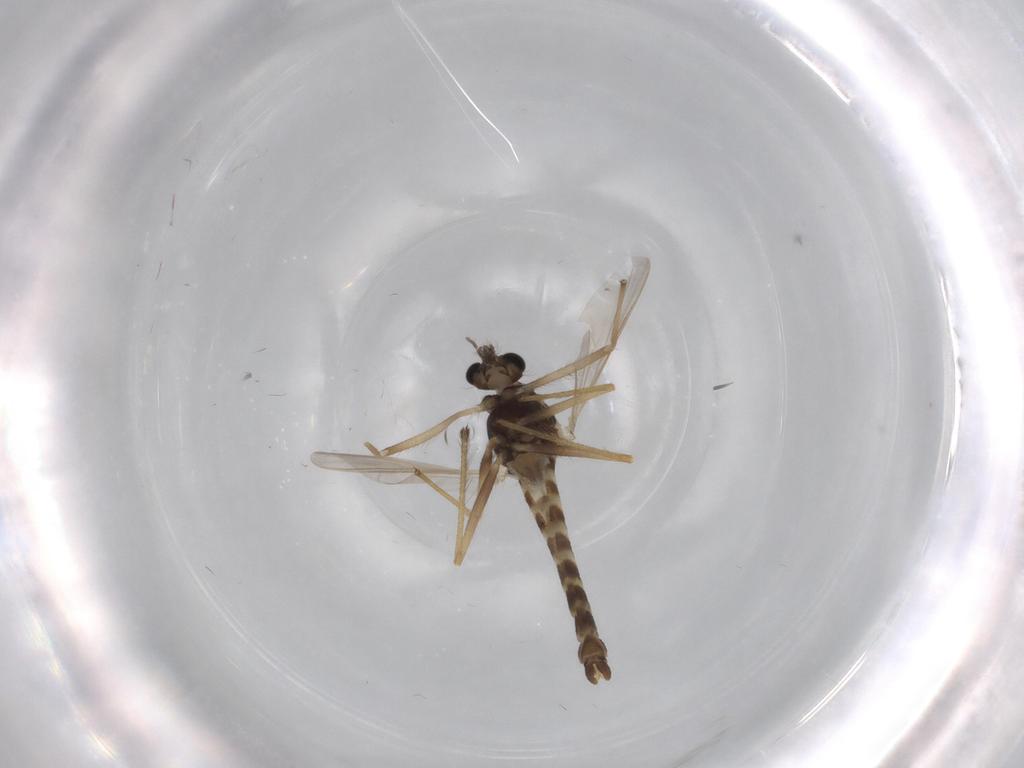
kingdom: Animalia
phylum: Arthropoda
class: Insecta
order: Diptera
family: Chironomidae
